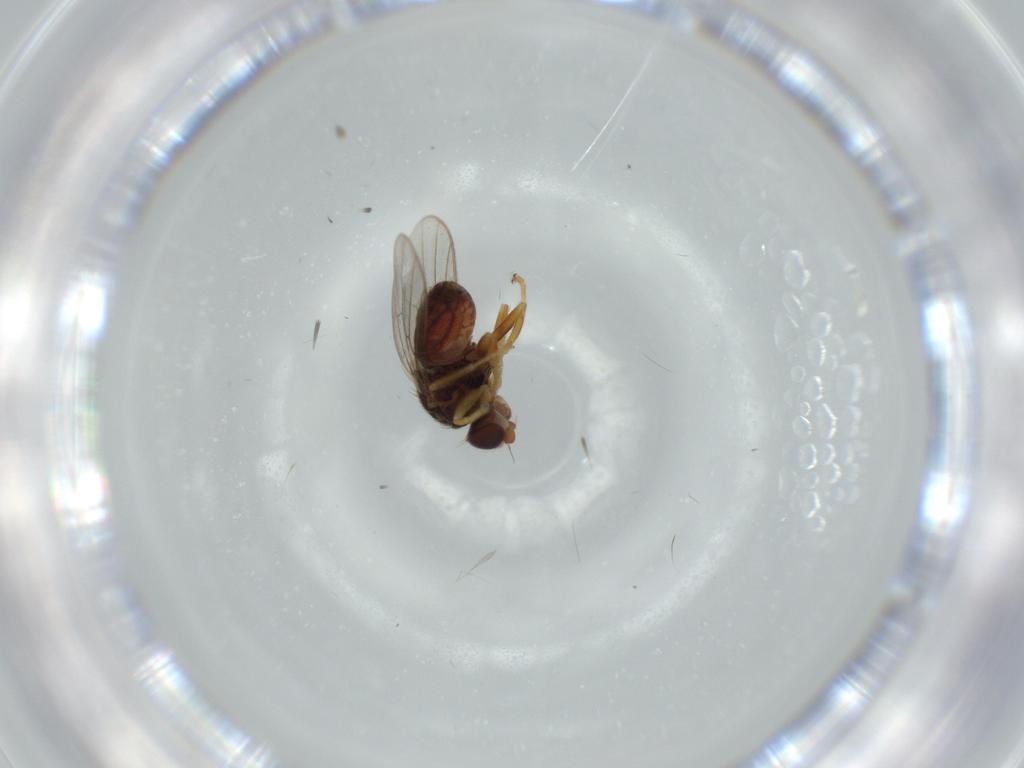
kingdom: Animalia
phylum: Arthropoda
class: Insecta
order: Diptera
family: Chloropidae
